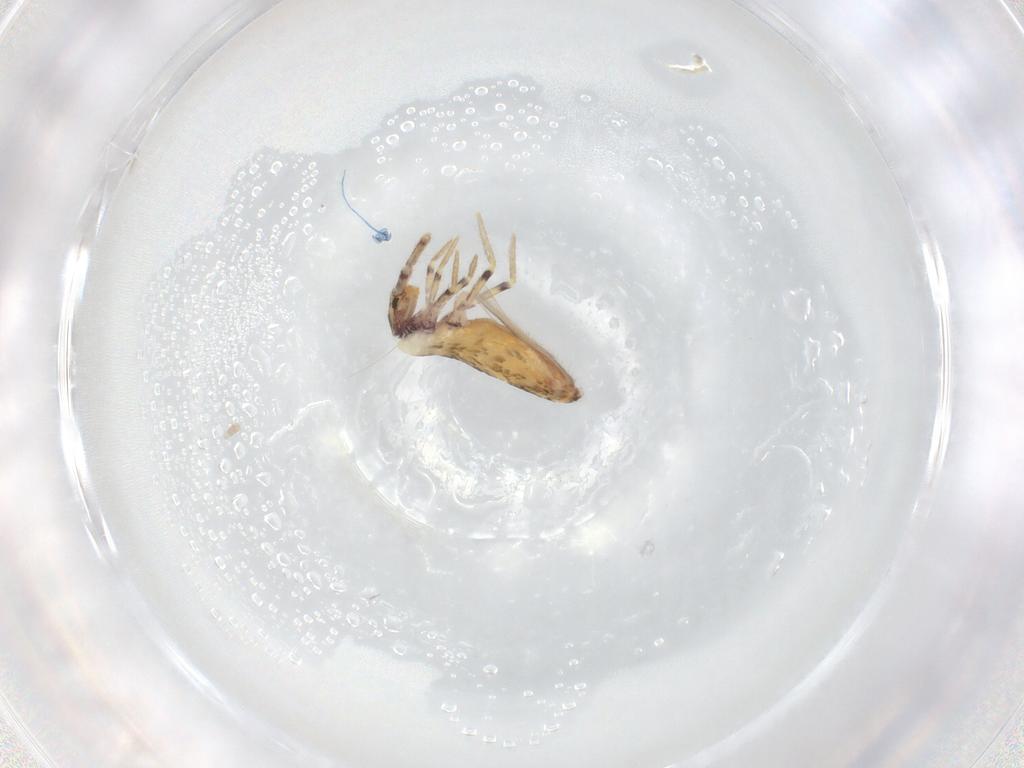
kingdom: Animalia
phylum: Arthropoda
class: Collembola
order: Entomobryomorpha
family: Entomobryidae
